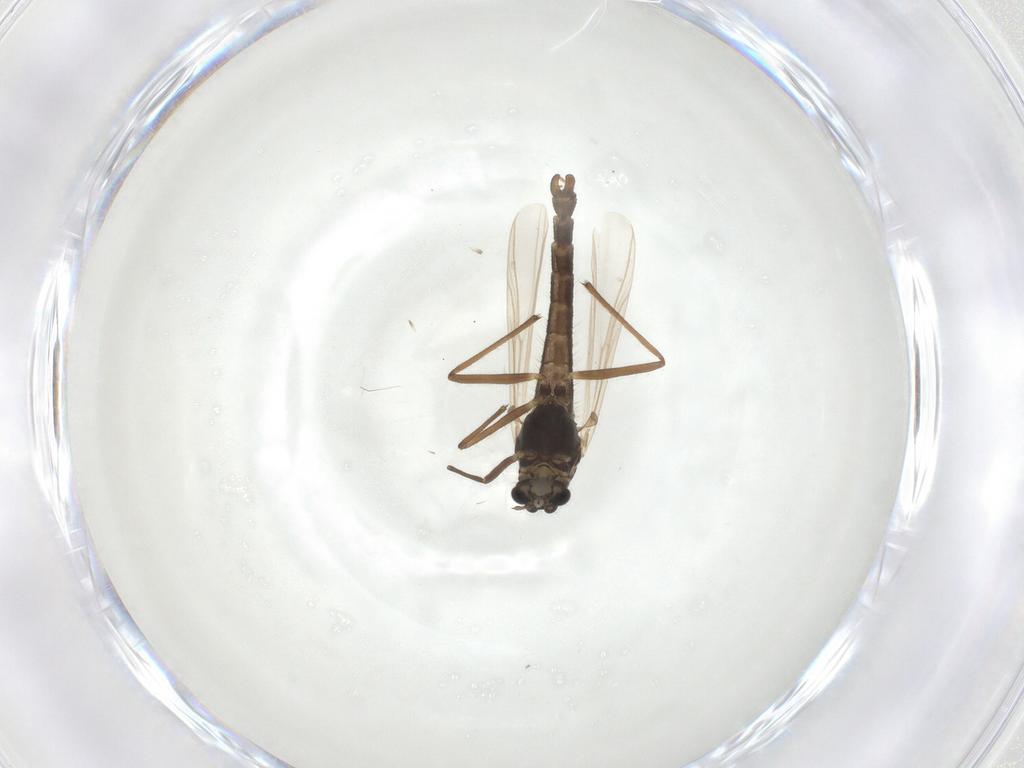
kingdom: Animalia
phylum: Arthropoda
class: Insecta
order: Diptera
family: Chironomidae
